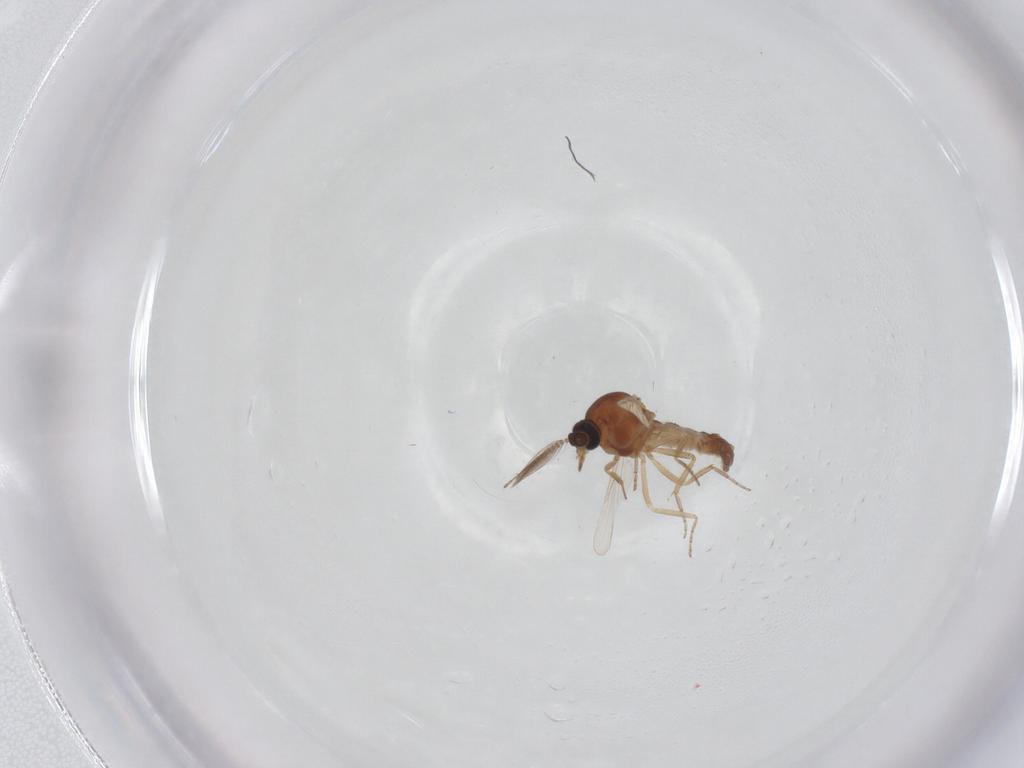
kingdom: Animalia
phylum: Arthropoda
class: Insecta
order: Diptera
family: Ceratopogonidae
